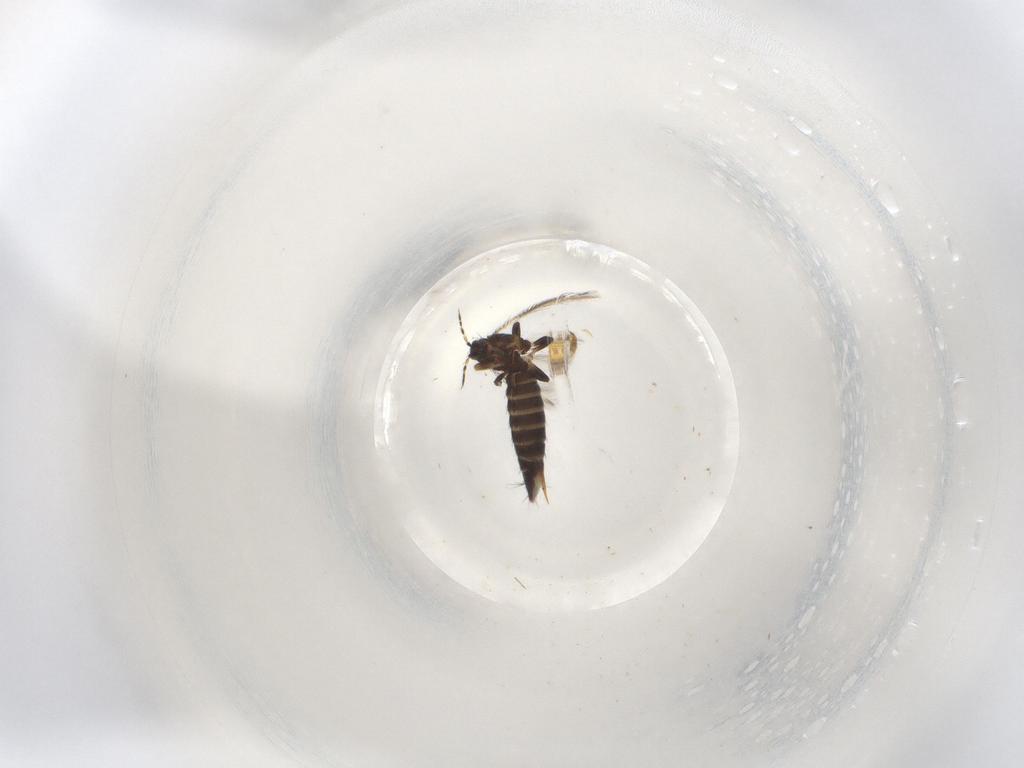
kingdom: Animalia
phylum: Arthropoda
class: Insecta
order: Thysanoptera
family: Thripidae
